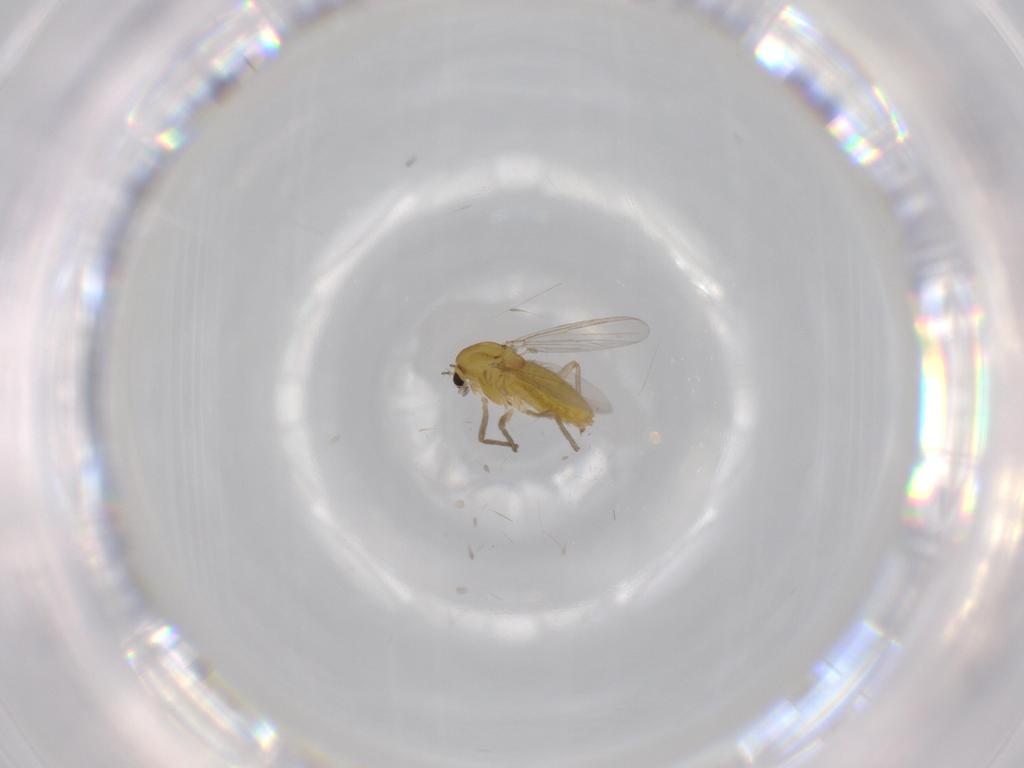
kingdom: Animalia
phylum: Arthropoda
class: Insecta
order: Diptera
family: Chironomidae
